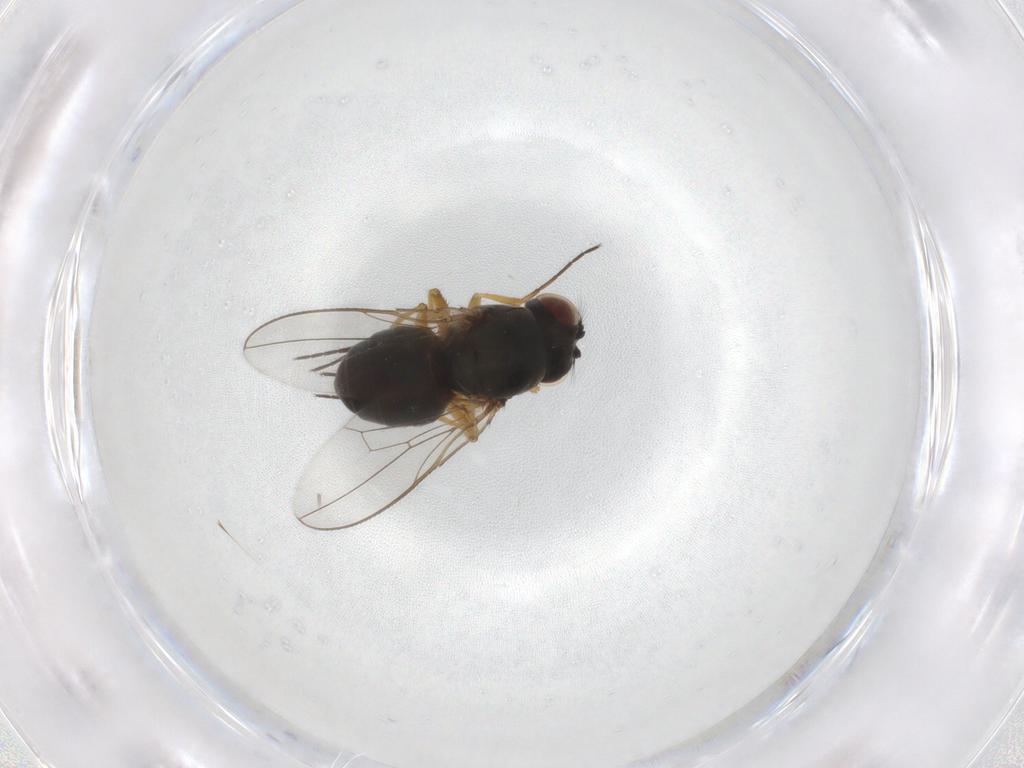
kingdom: Animalia
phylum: Arthropoda
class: Insecta
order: Diptera
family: Ephydridae
